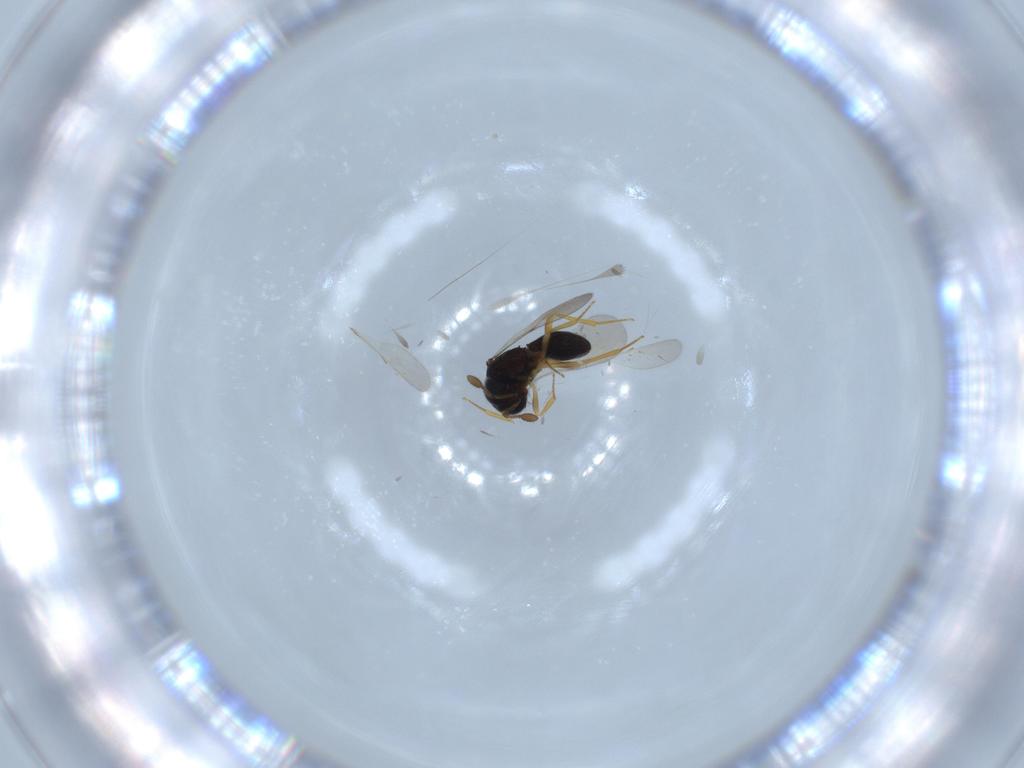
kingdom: Animalia
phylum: Arthropoda
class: Insecta
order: Hymenoptera
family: Scelionidae
